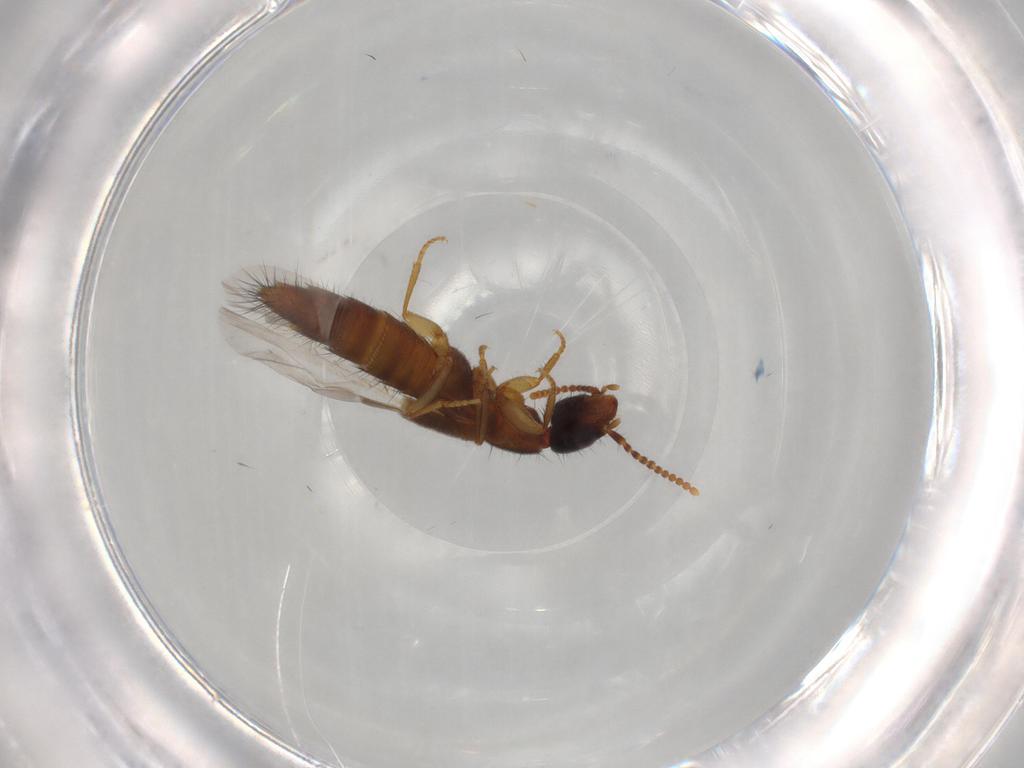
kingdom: Animalia
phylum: Arthropoda
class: Insecta
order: Coleoptera
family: Staphylinidae
